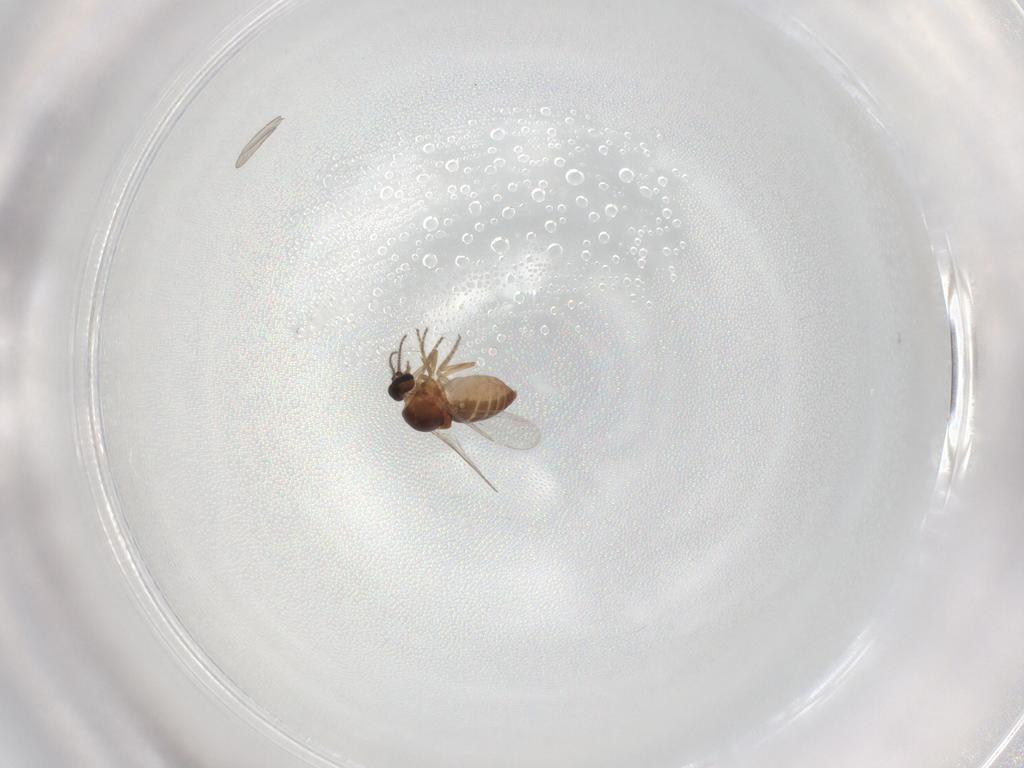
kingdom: Animalia
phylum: Arthropoda
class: Insecta
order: Diptera
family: Psychodidae
